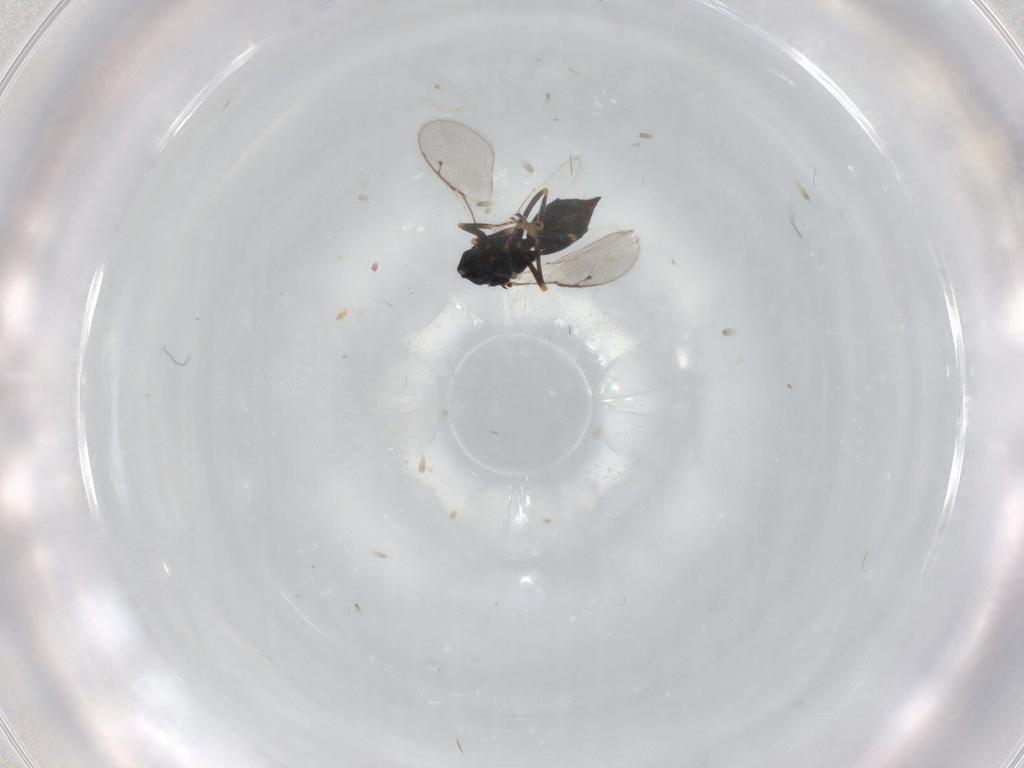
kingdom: Animalia
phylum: Arthropoda
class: Insecta
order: Hymenoptera
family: Pteromalidae
